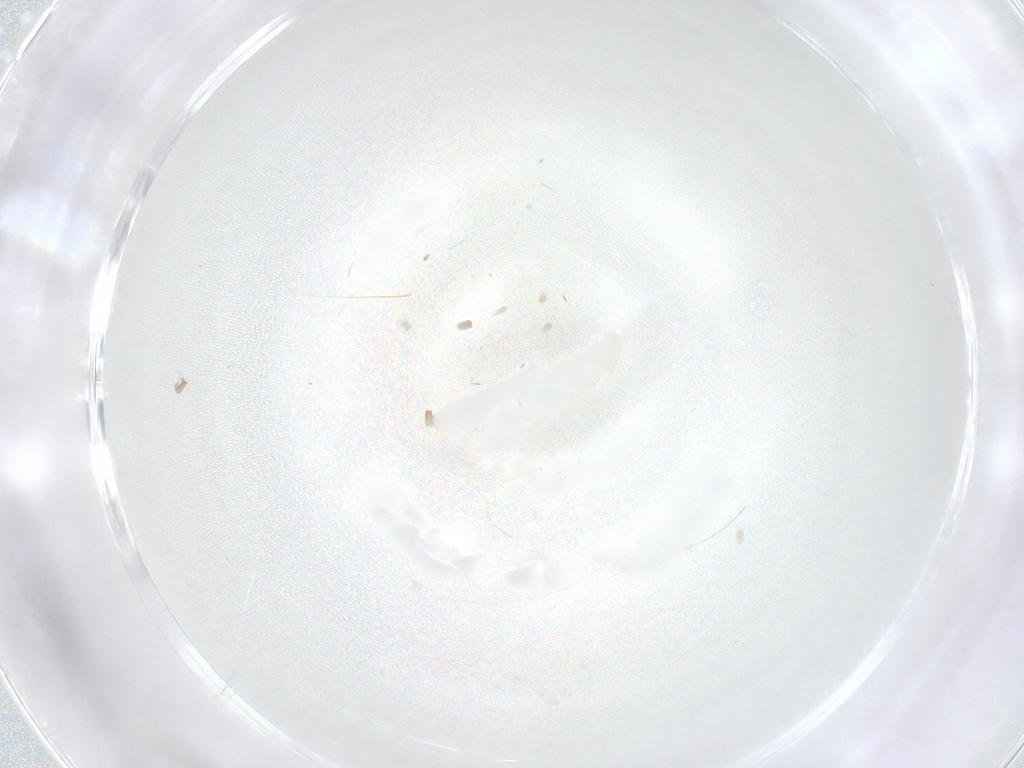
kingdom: Animalia
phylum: Arthropoda
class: Insecta
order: Orthoptera
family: Trigonidiidae
